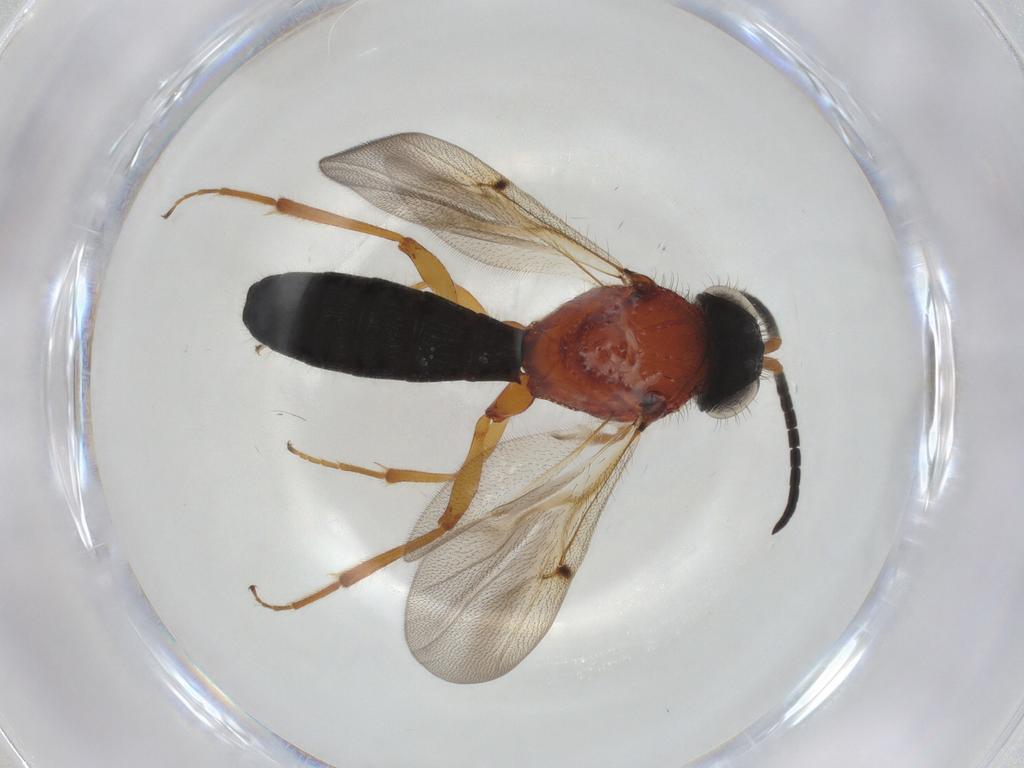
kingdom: Animalia
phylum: Arthropoda
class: Insecta
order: Hymenoptera
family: Scelionidae
